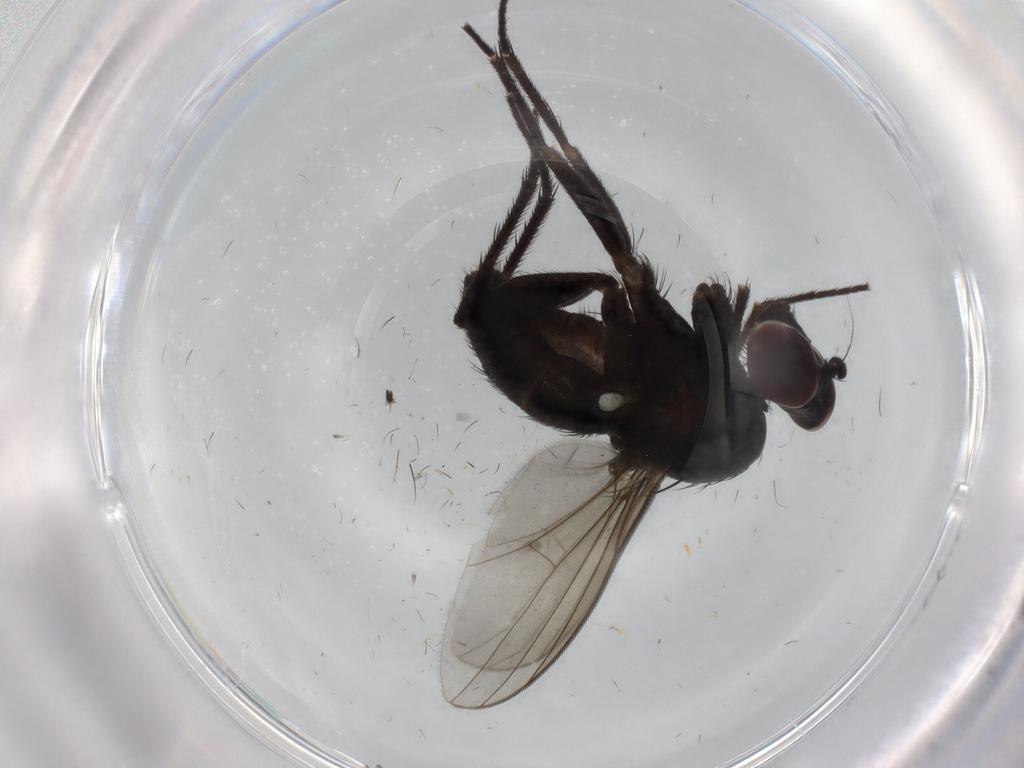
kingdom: Animalia
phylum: Arthropoda
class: Insecta
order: Diptera
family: Dolichopodidae
